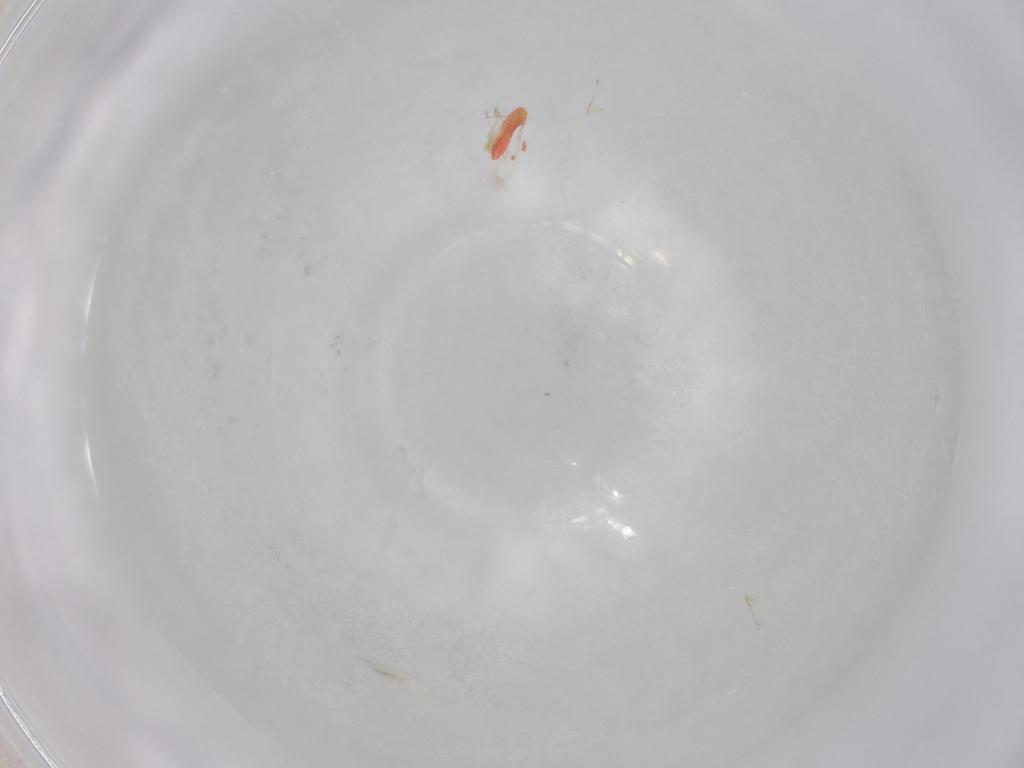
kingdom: Animalia
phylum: Arthropoda
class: Insecta
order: Hymenoptera
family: Trichogrammatidae
